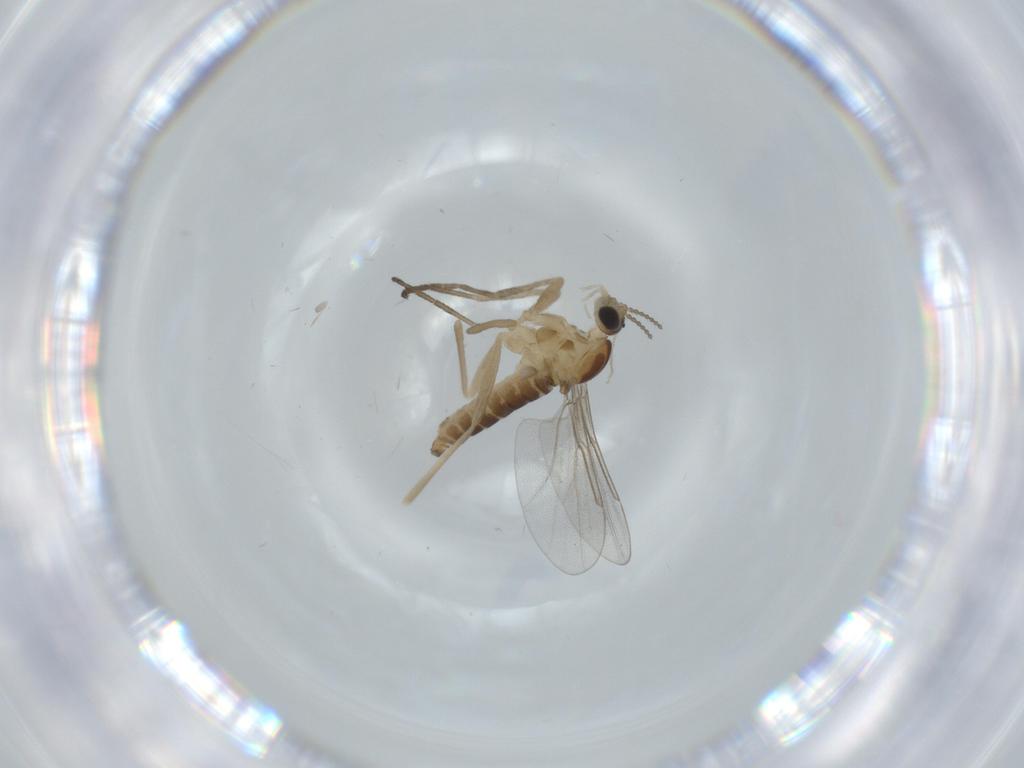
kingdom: Animalia
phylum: Arthropoda
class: Insecta
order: Diptera
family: Cecidomyiidae
